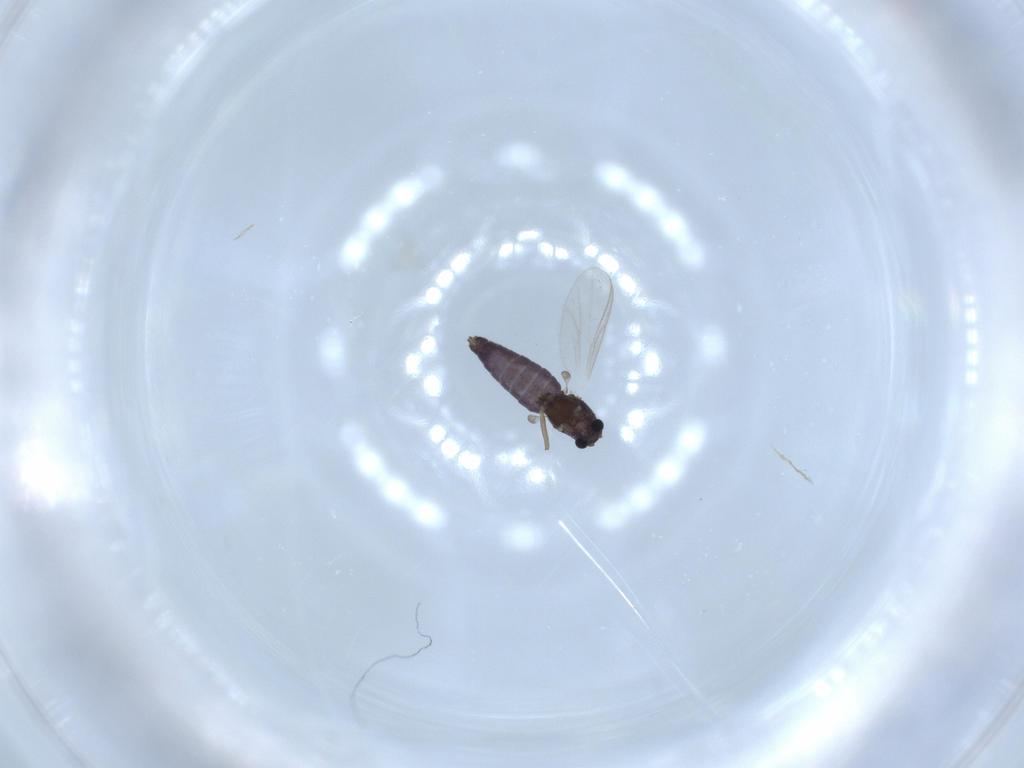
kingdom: Animalia
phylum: Arthropoda
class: Insecta
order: Diptera
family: Chironomidae
